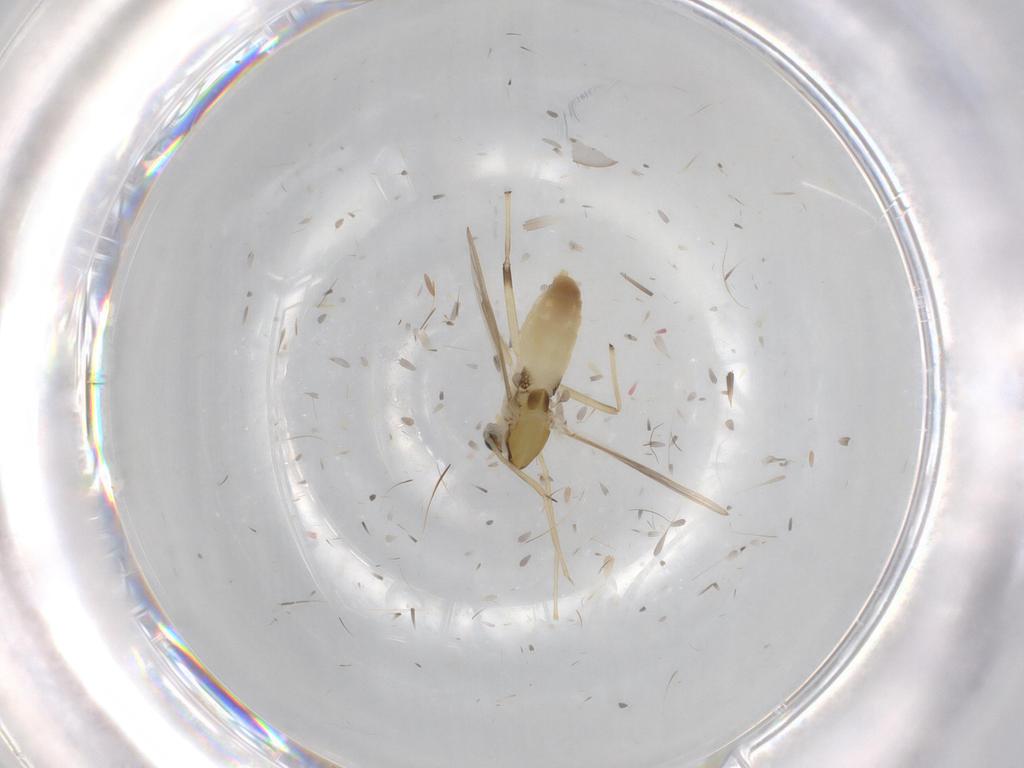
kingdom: Animalia
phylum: Arthropoda
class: Insecta
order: Diptera
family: Chironomidae
